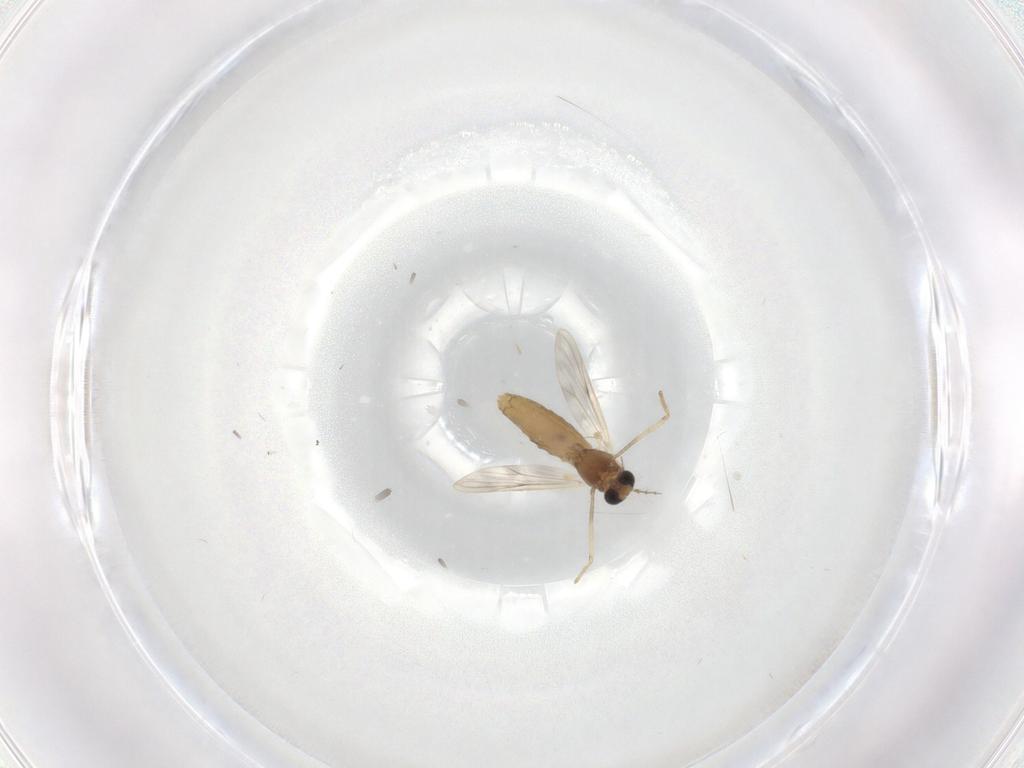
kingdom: Animalia
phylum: Arthropoda
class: Insecta
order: Diptera
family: Chironomidae
